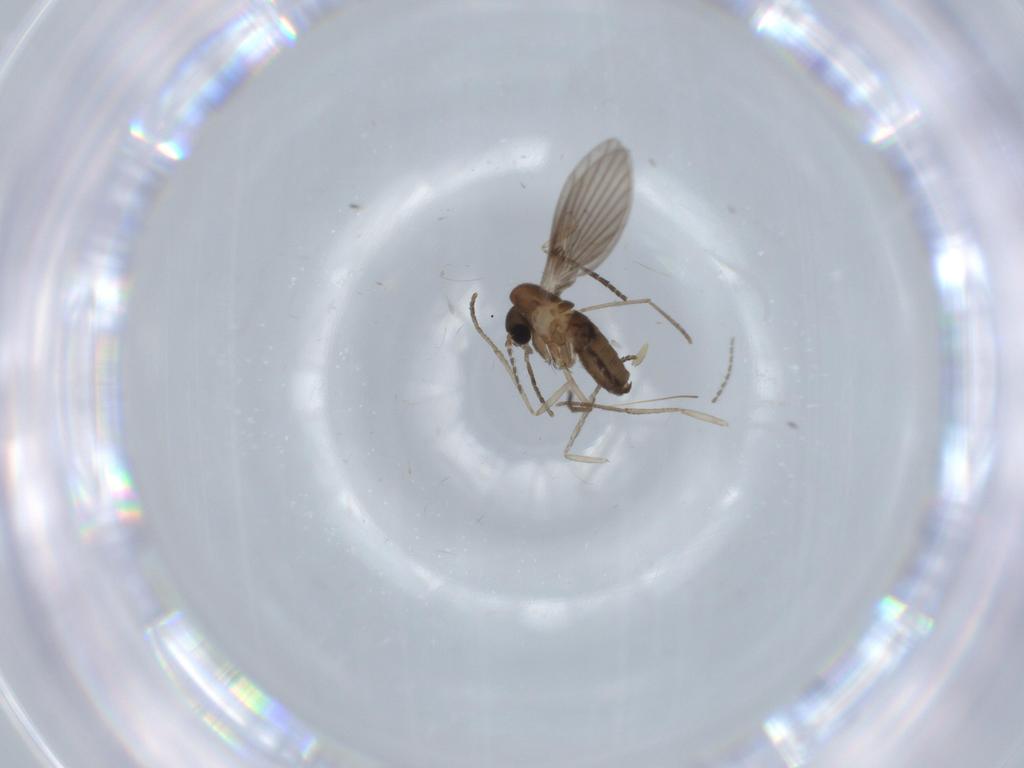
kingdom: Animalia
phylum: Arthropoda
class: Insecta
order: Diptera
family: Psychodidae
